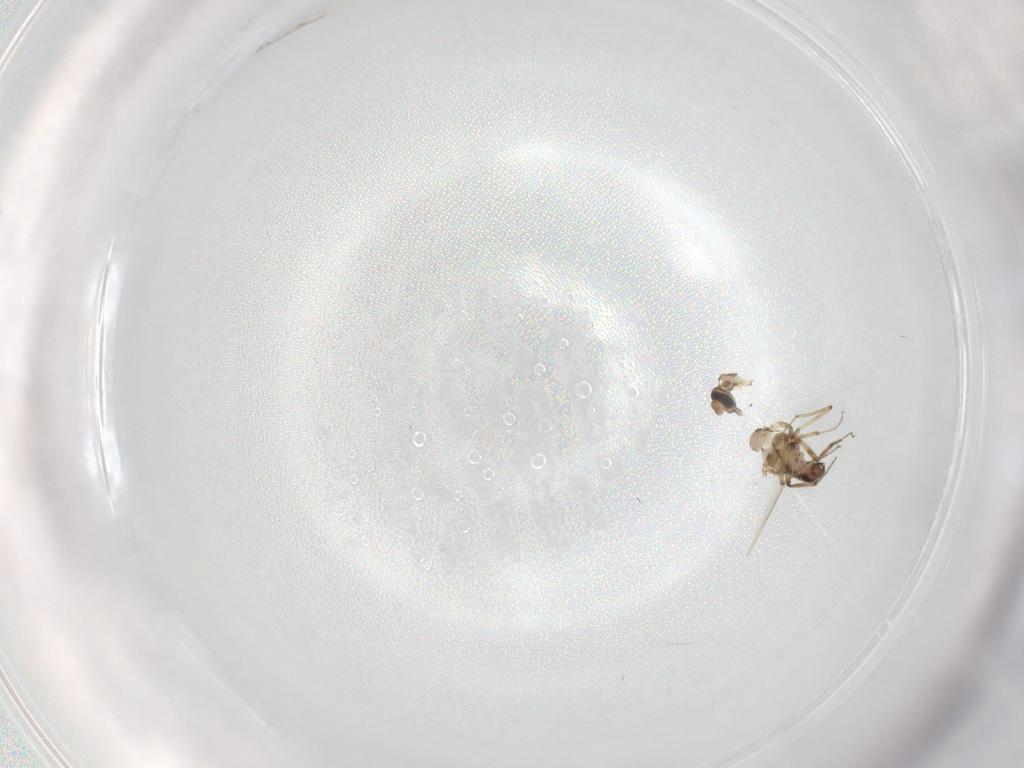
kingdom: Animalia
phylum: Arthropoda
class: Insecta
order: Diptera
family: Ceratopogonidae
